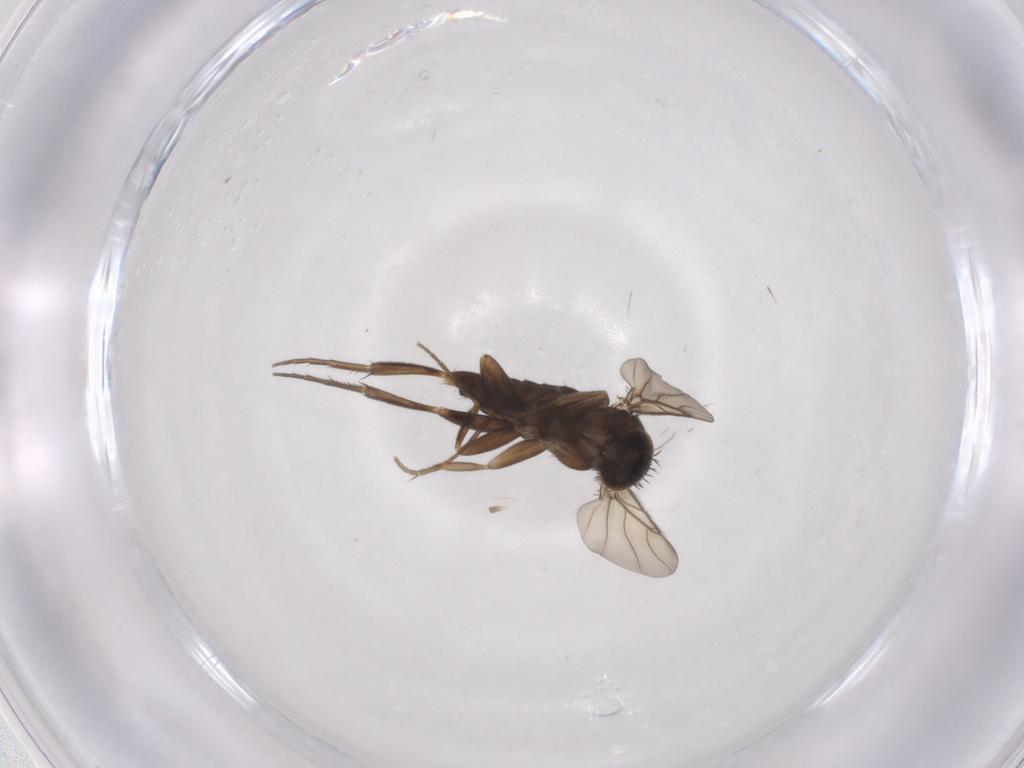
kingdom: Animalia
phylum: Arthropoda
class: Insecta
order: Diptera
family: Phoridae
